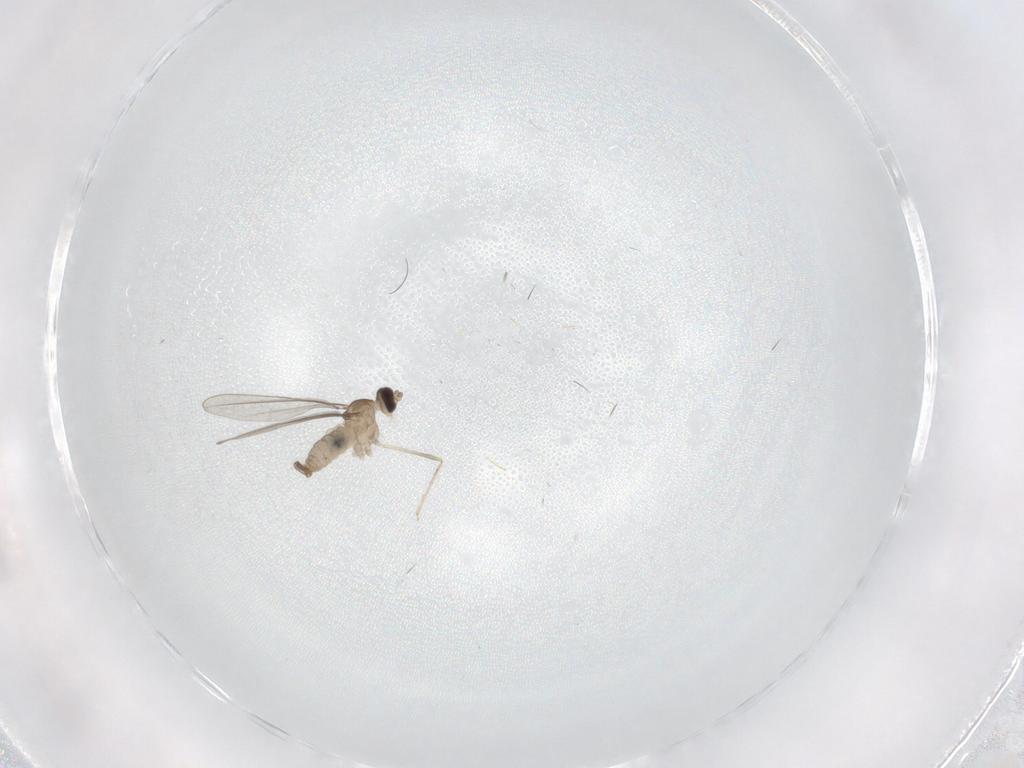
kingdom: Animalia
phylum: Arthropoda
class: Insecta
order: Diptera
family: Cecidomyiidae
